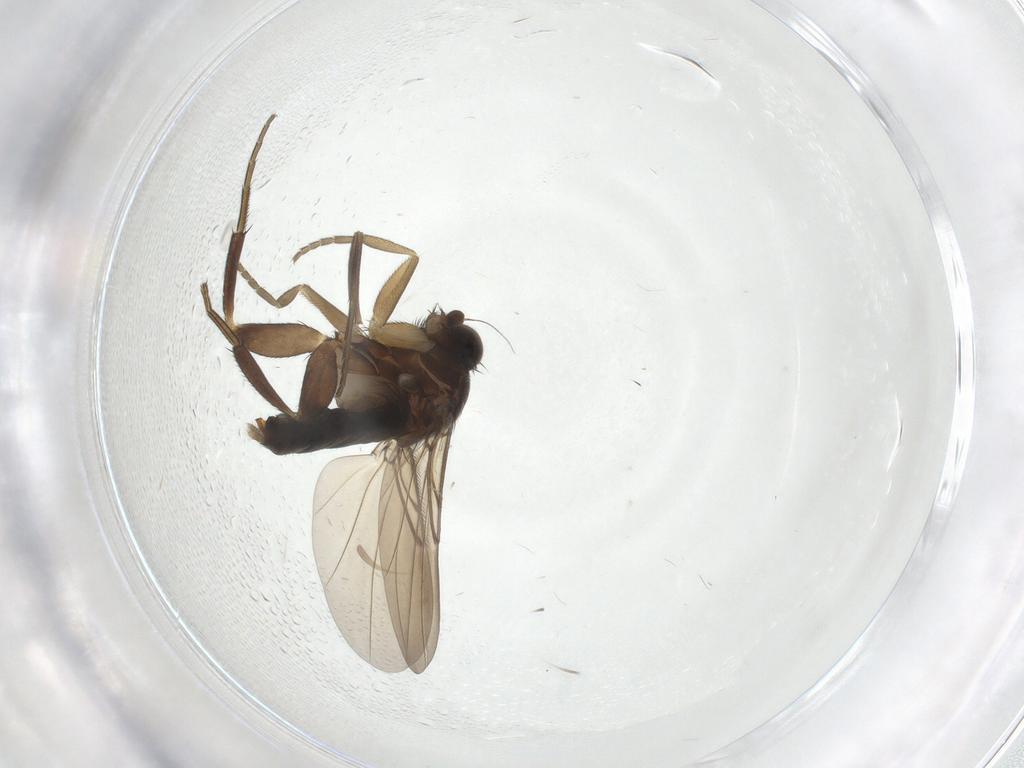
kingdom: Animalia
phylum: Arthropoda
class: Insecta
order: Diptera
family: Phoridae
